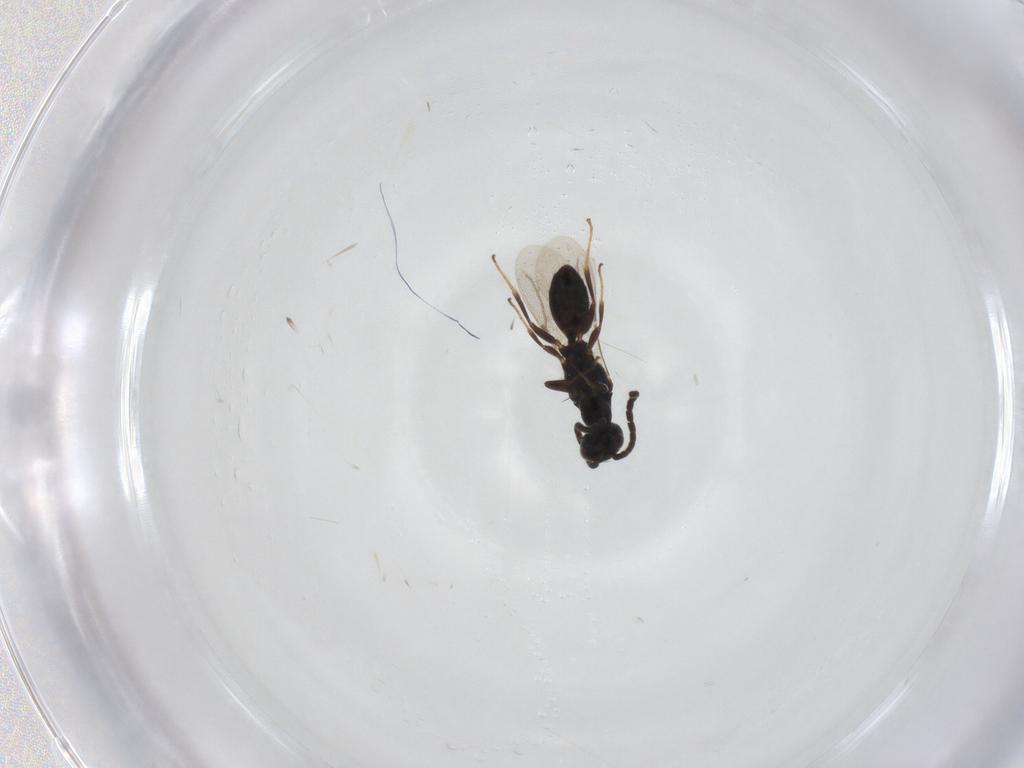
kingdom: Animalia
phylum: Arthropoda
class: Insecta
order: Hymenoptera
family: Bethylidae
